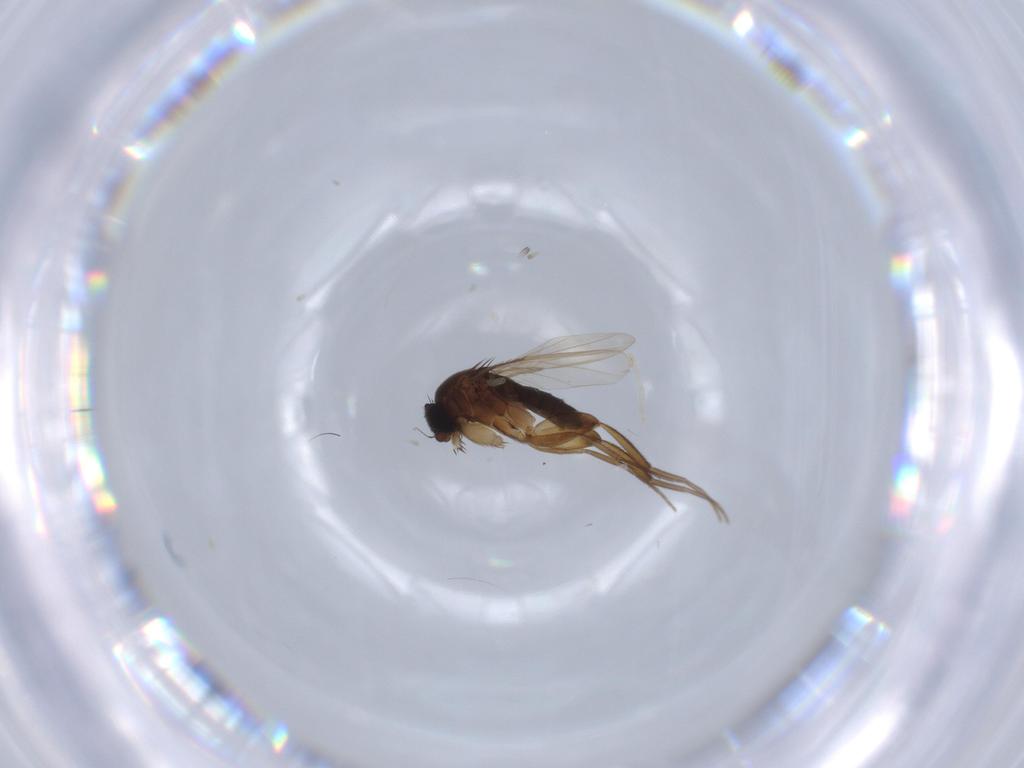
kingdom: Animalia
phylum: Arthropoda
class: Insecta
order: Diptera
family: Phoridae
